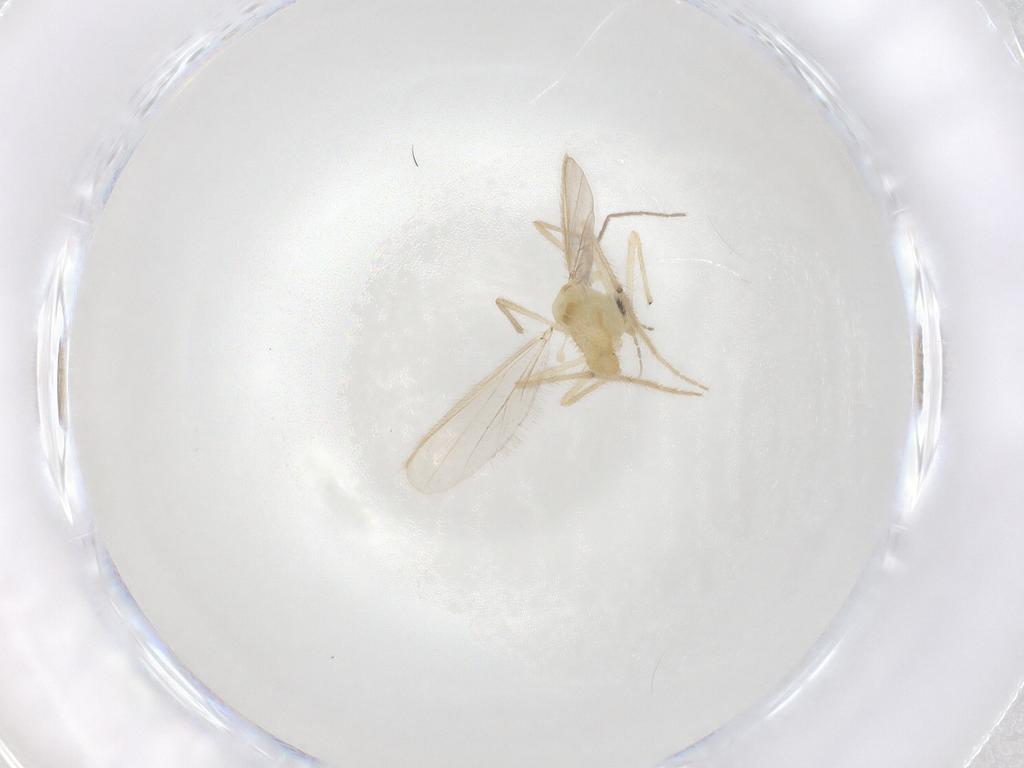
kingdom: Animalia
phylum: Arthropoda
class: Insecta
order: Diptera
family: Chironomidae
